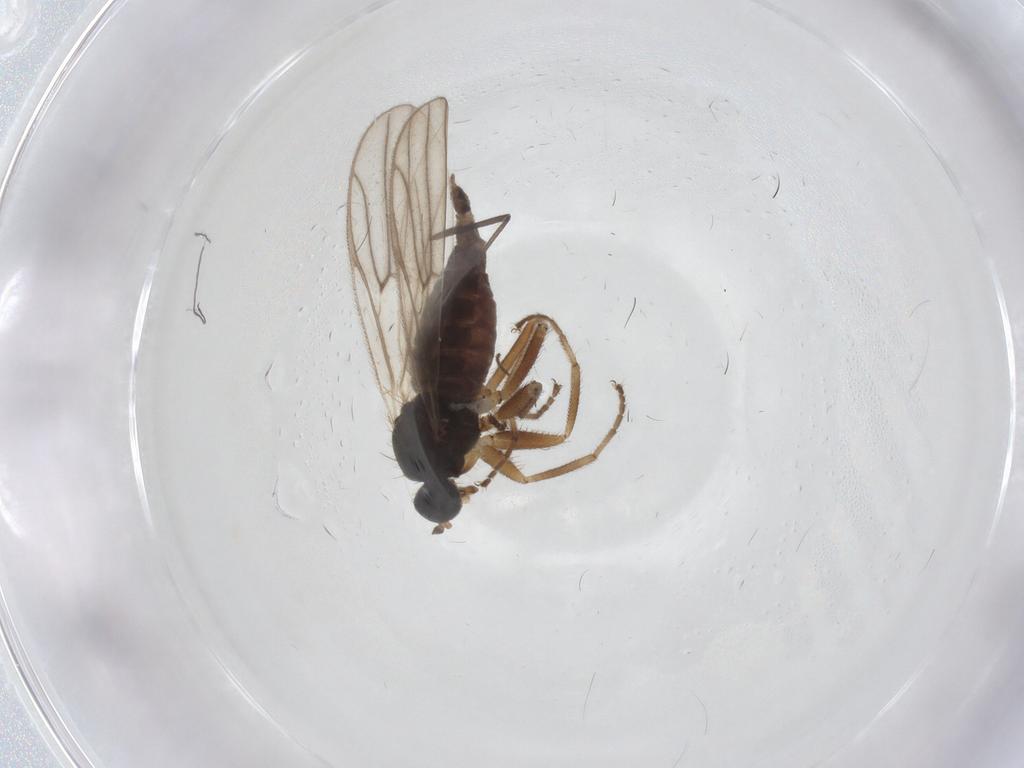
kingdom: Animalia
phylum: Arthropoda
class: Insecta
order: Diptera
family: Hybotidae
